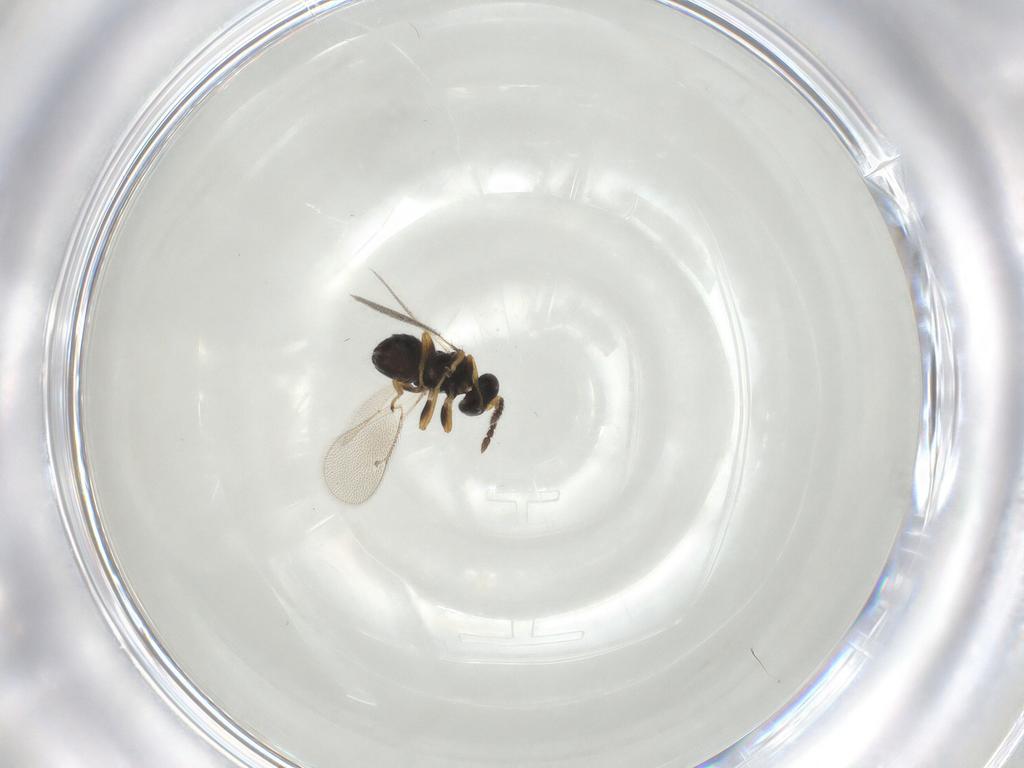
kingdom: Animalia
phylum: Arthropoda
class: Insecta
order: Hymenoptera
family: Eulophidae
